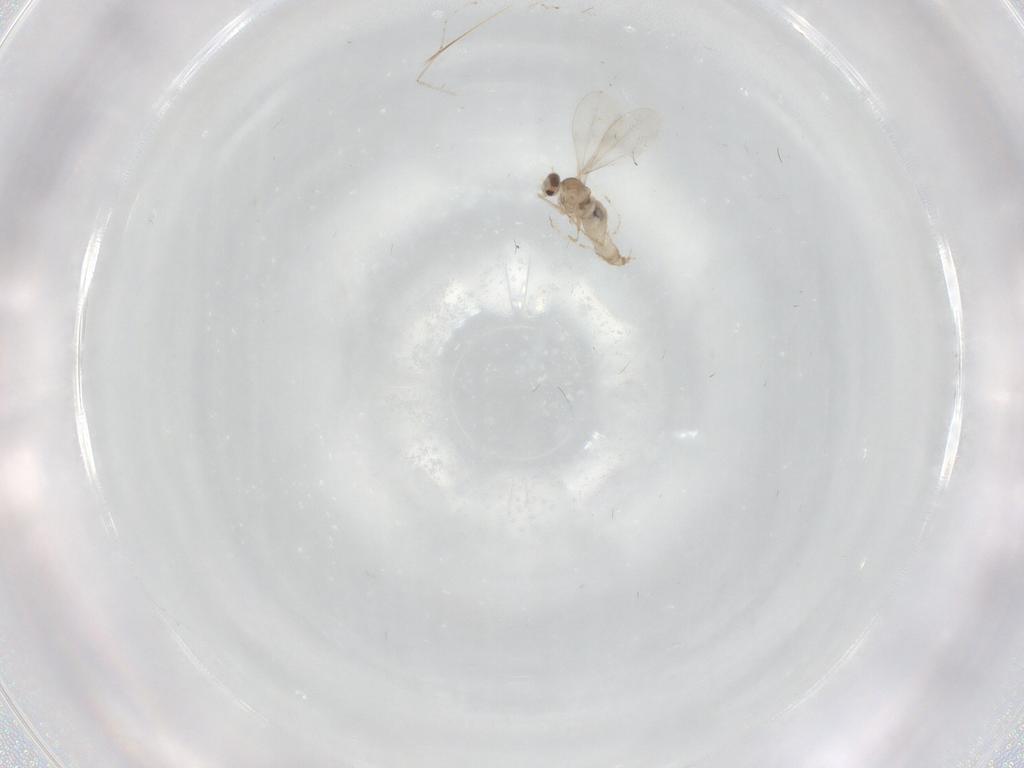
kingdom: Animalia
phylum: Arthropoda
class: Insecta
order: Diptera
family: Cecidomyiidae
